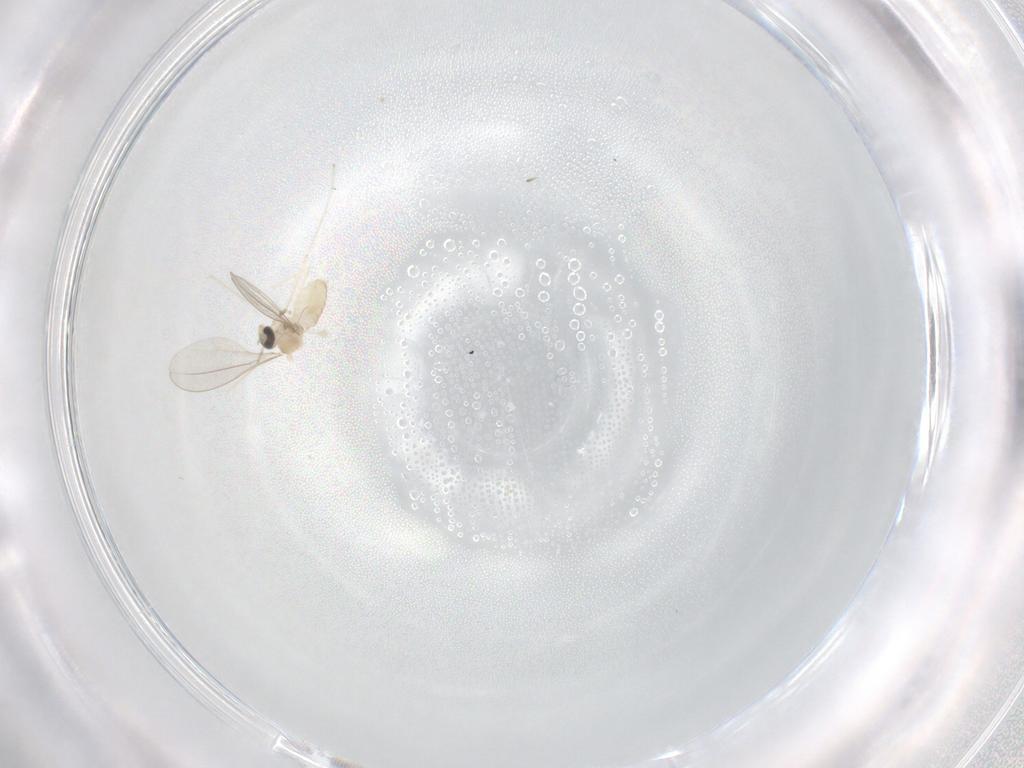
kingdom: Animalia
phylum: Arthropoda
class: Insecta
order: Diptera
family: Cecidomyiidae
